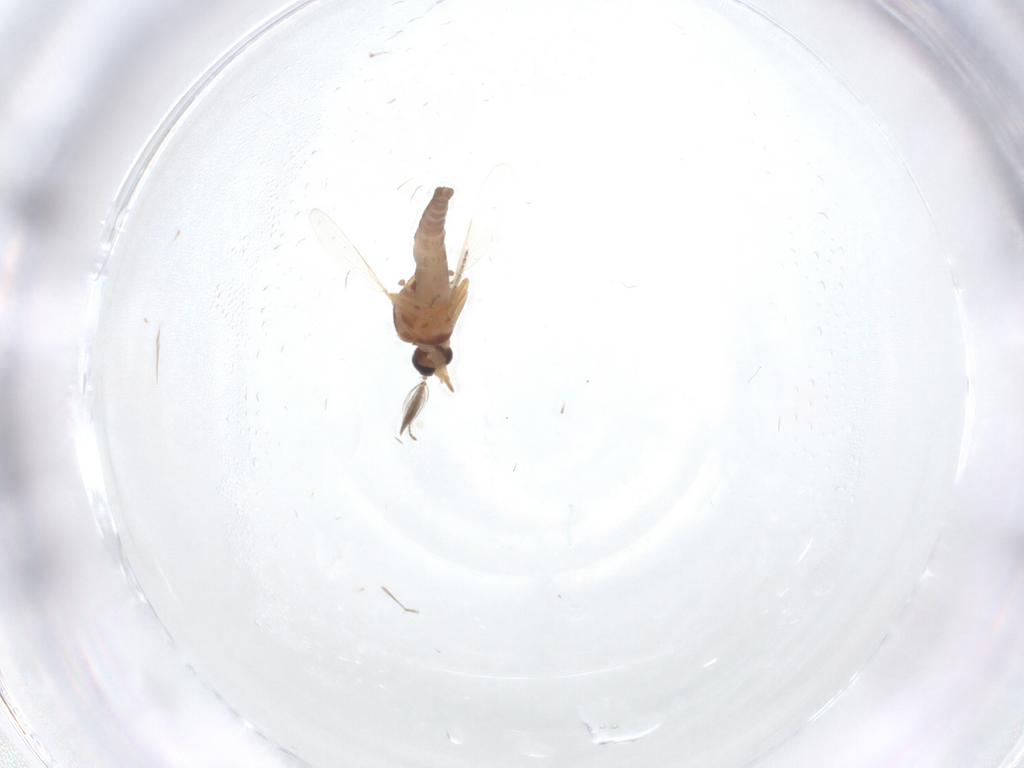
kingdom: Animalia
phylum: Arthropoda
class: Insecta
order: Diptera
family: Ceratopogonidae
